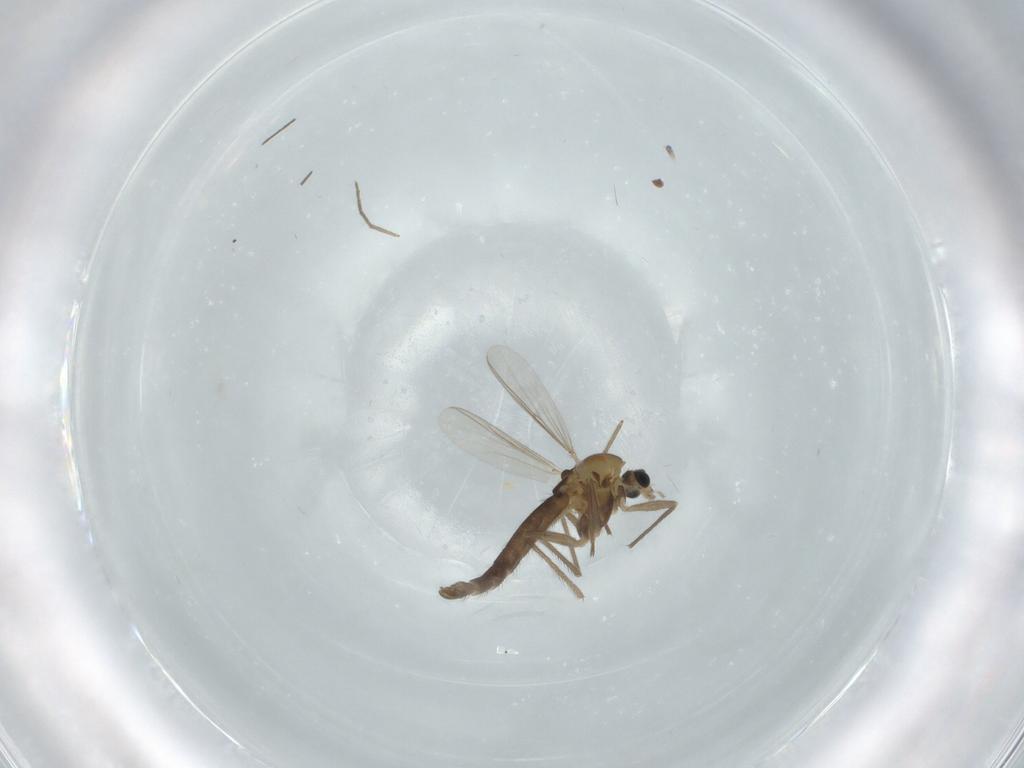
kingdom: Animalia
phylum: Arthropoda
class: Insecta
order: Diptera
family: Chironomidae
